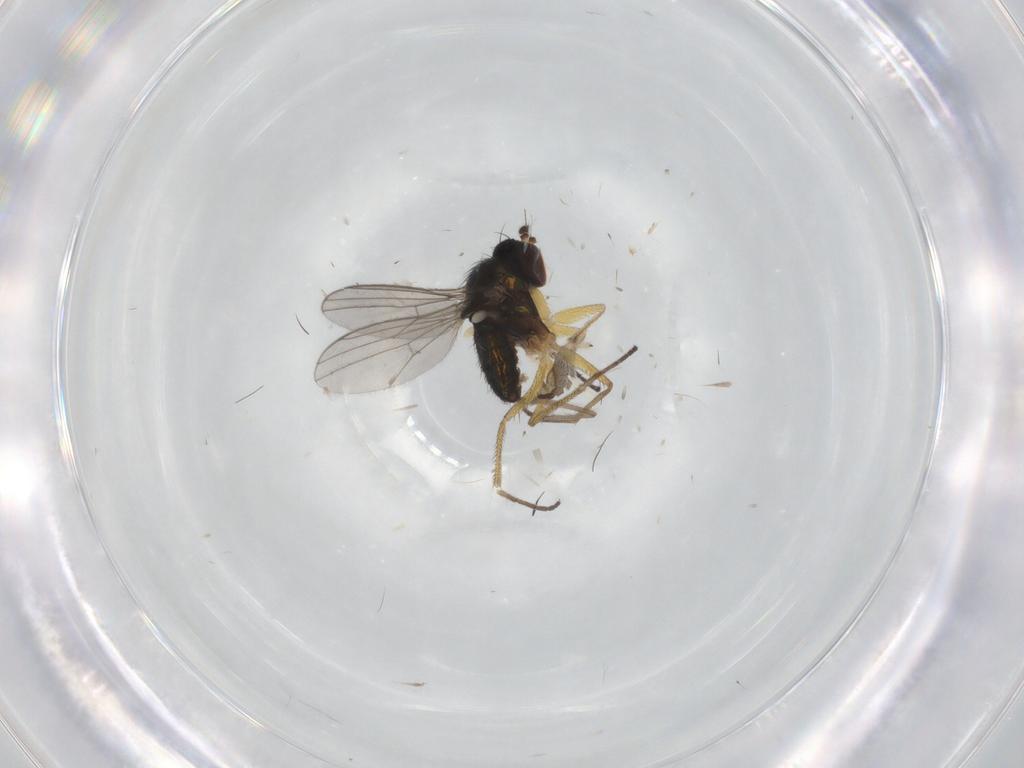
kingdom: Animalia
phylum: Arthropoda
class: Insecta
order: Diptera
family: Dolichopodidae
